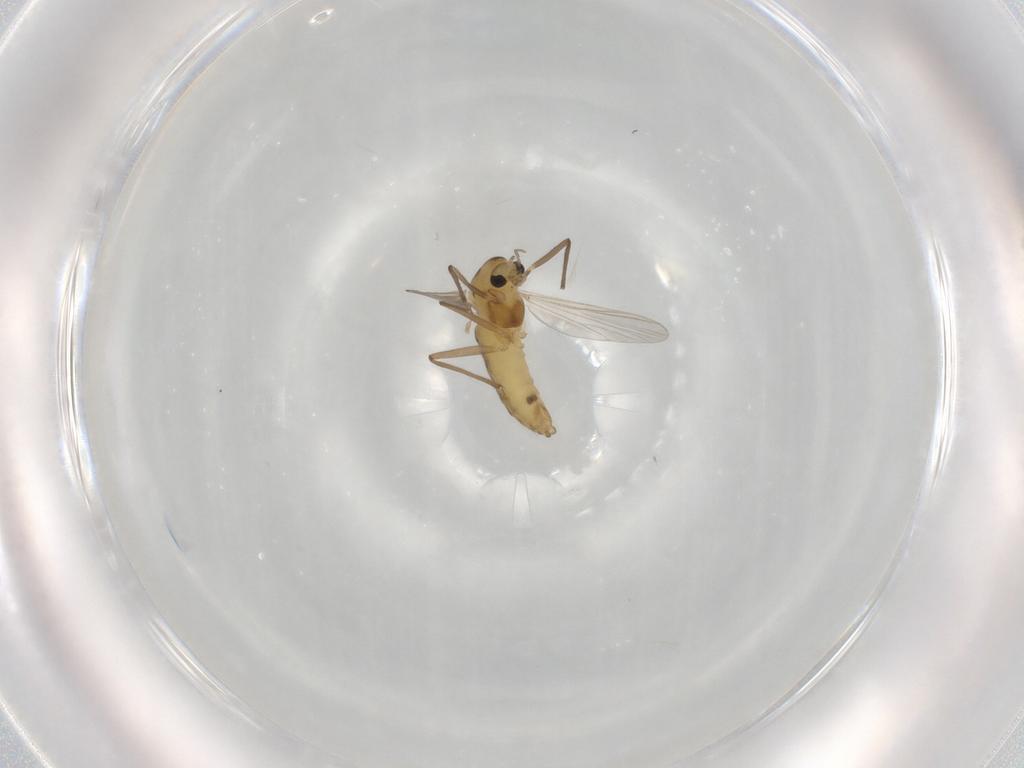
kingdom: Animalia
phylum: Arthropoda
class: Insecta
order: Diptera
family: Chironomidae
